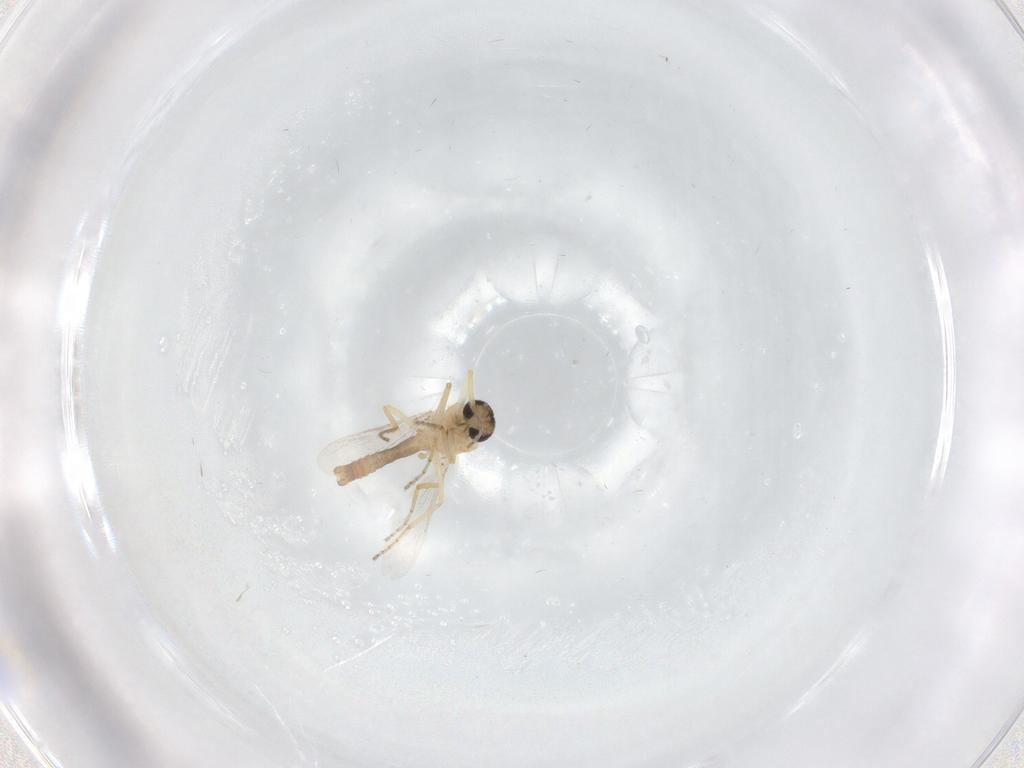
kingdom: Animalia
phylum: Arthropoda
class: Insecta
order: Diptera
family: Ceratopogonidae
